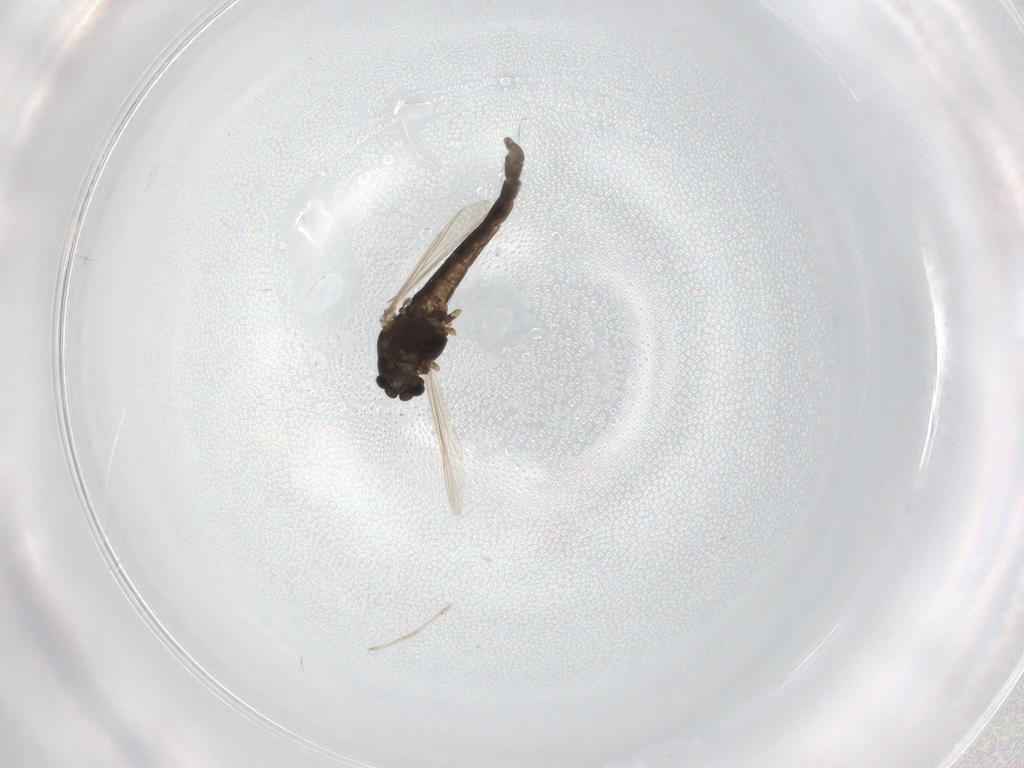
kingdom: Animalia
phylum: Arthropoda
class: Insecta
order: Diptera
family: Chironomidae
